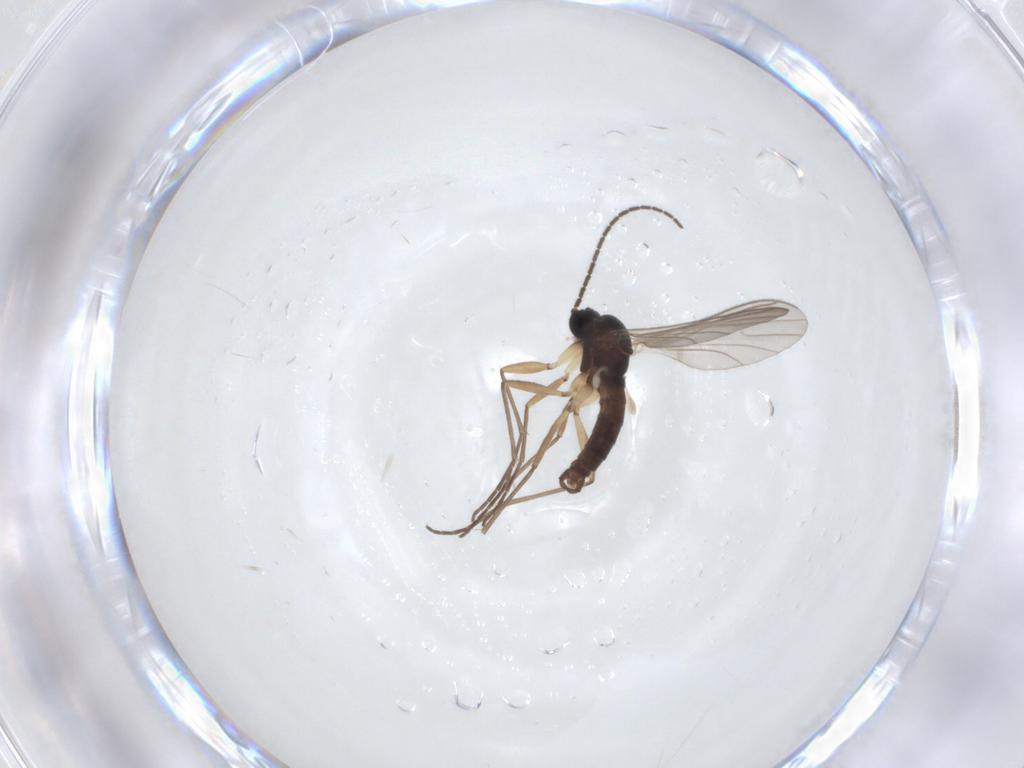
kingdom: Animalia
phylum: Arthropoda
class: Insecta
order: Diptera
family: Sciaridae
